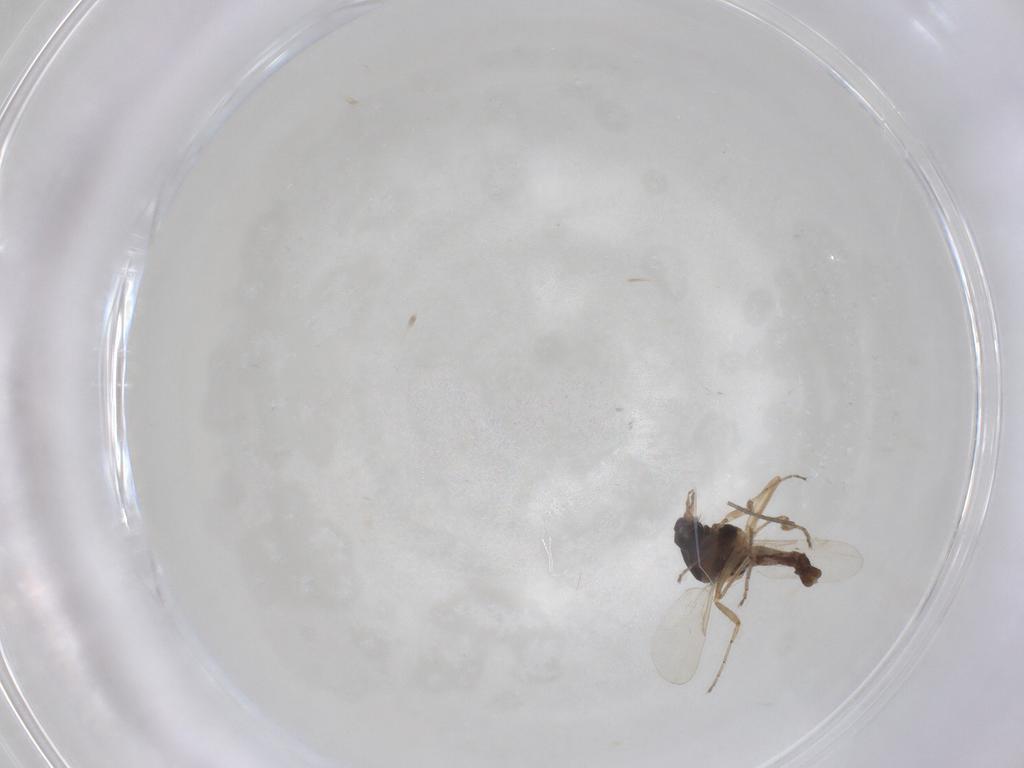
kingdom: Animalia
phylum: Arthropoda
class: Insecta
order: Diptera
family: Ceratopogonidae
